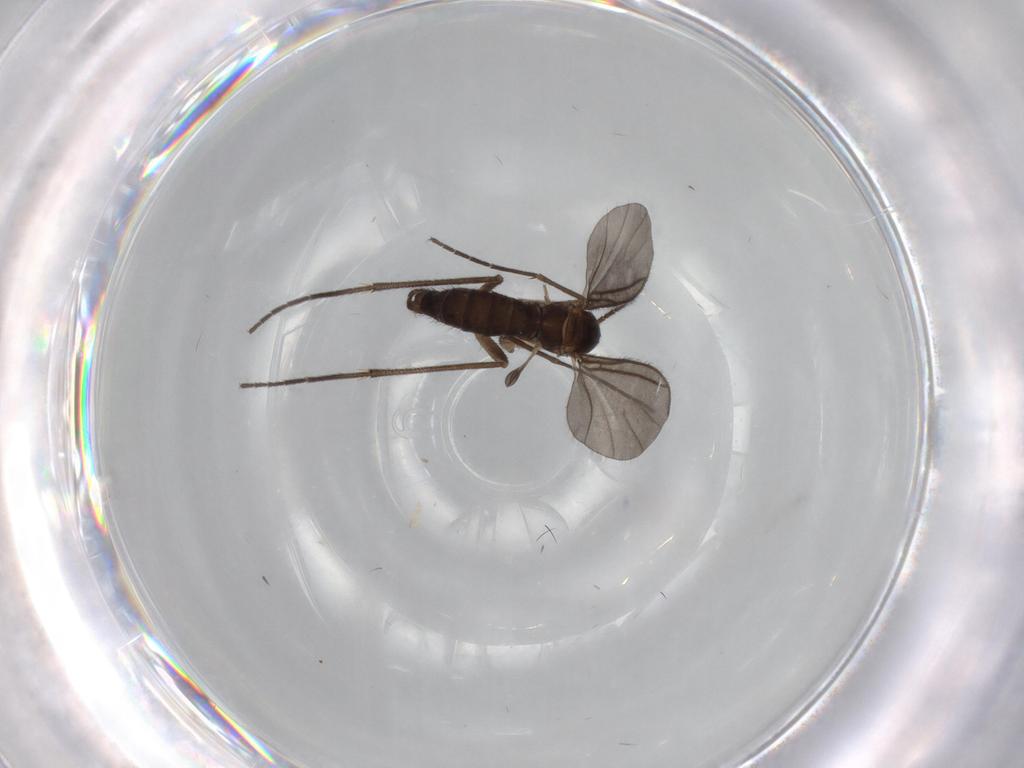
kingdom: Animalia
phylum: Arthropoda
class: Insecta
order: Diptera
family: Sciaridae
